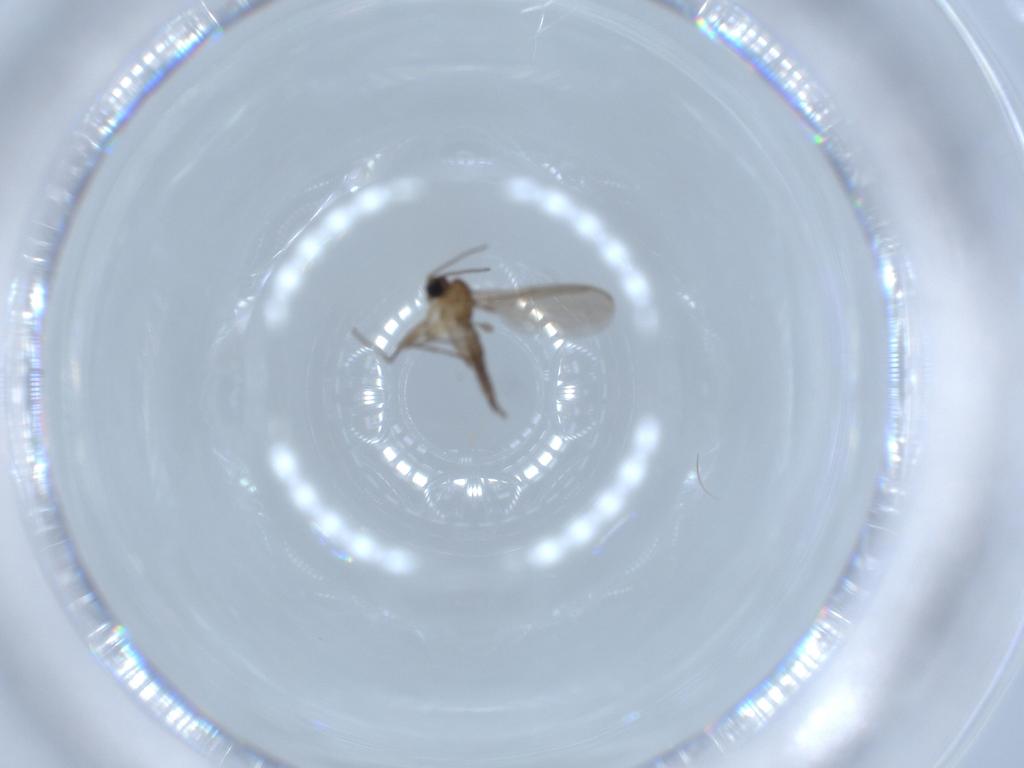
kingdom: Animalia
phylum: Arthropoda
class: Insecta
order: Diptera
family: Sciaridae
